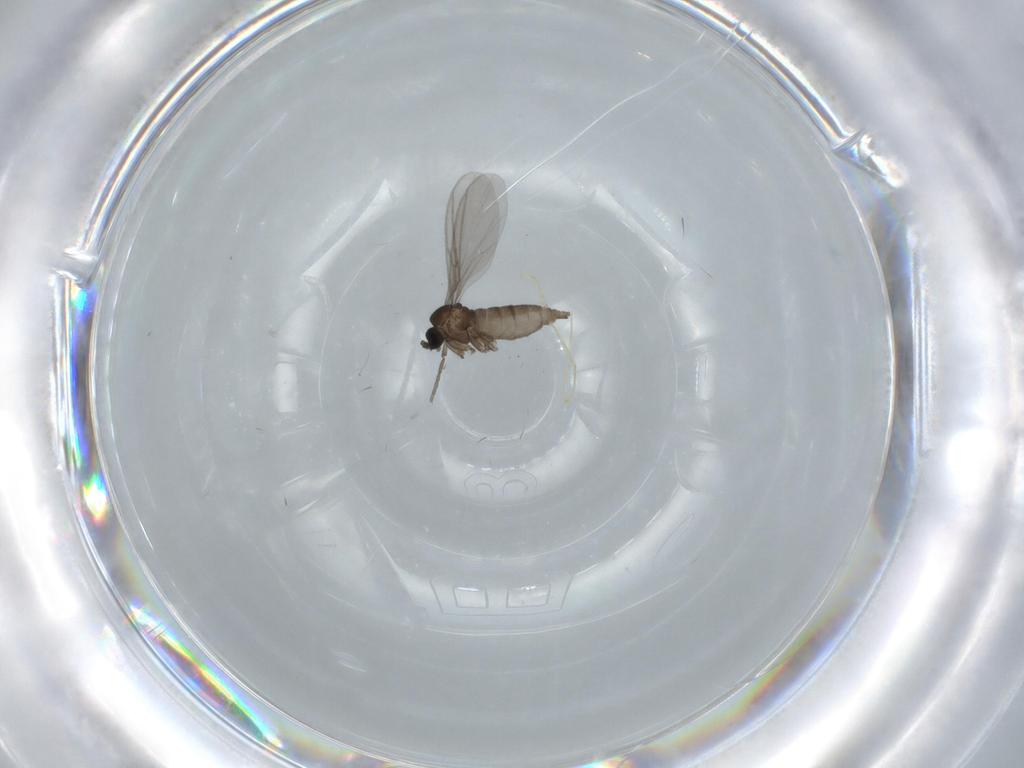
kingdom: Animalia
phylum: Arthropoda
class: Insecta
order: Diptera
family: Sciaridae
